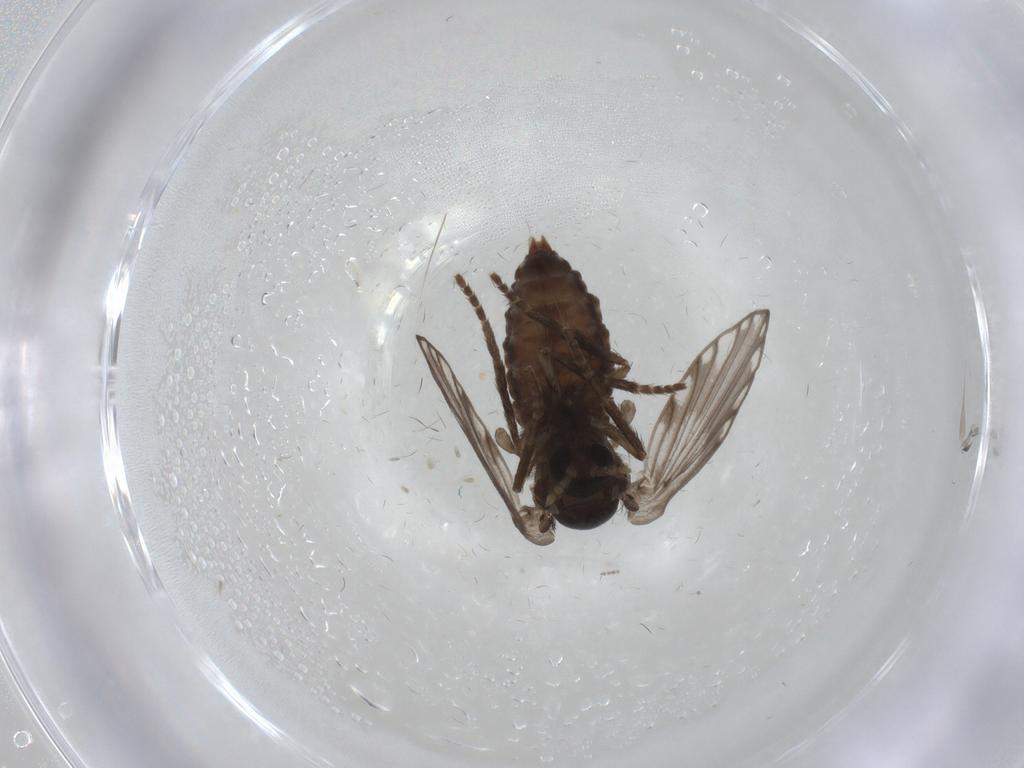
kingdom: Animalia
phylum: Arthropoda
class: Insecta
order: Diptera
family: Psychodidae
